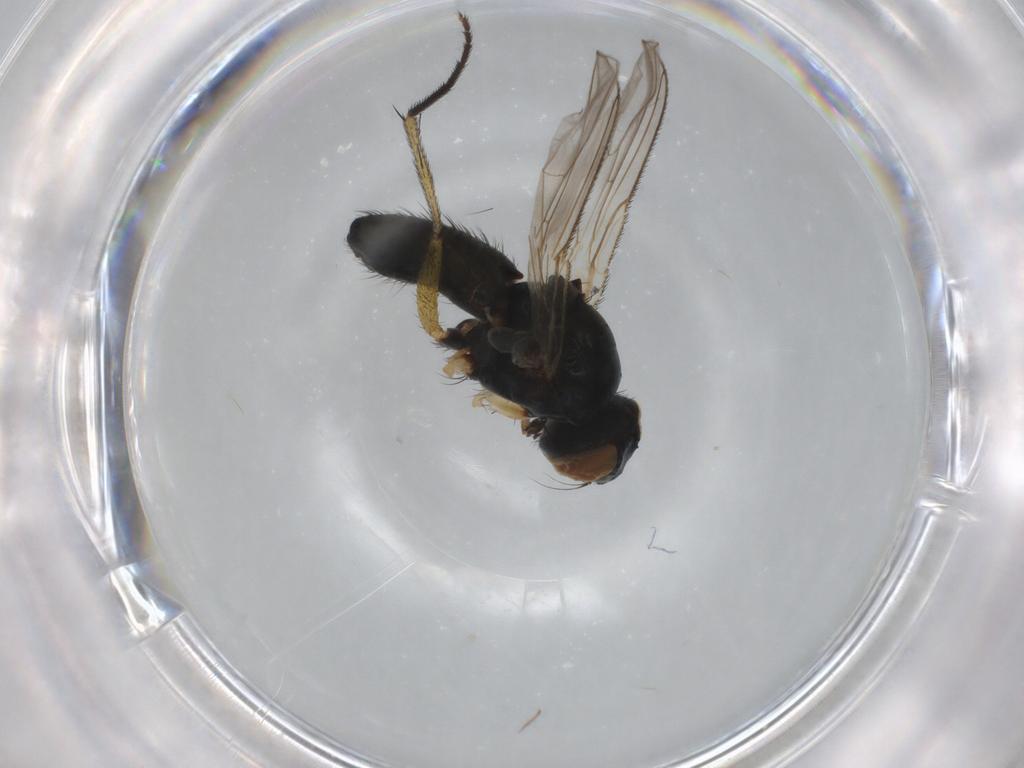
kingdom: Animalia
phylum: Arthropoda
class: Insecta
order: Diptera
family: Muscidae
